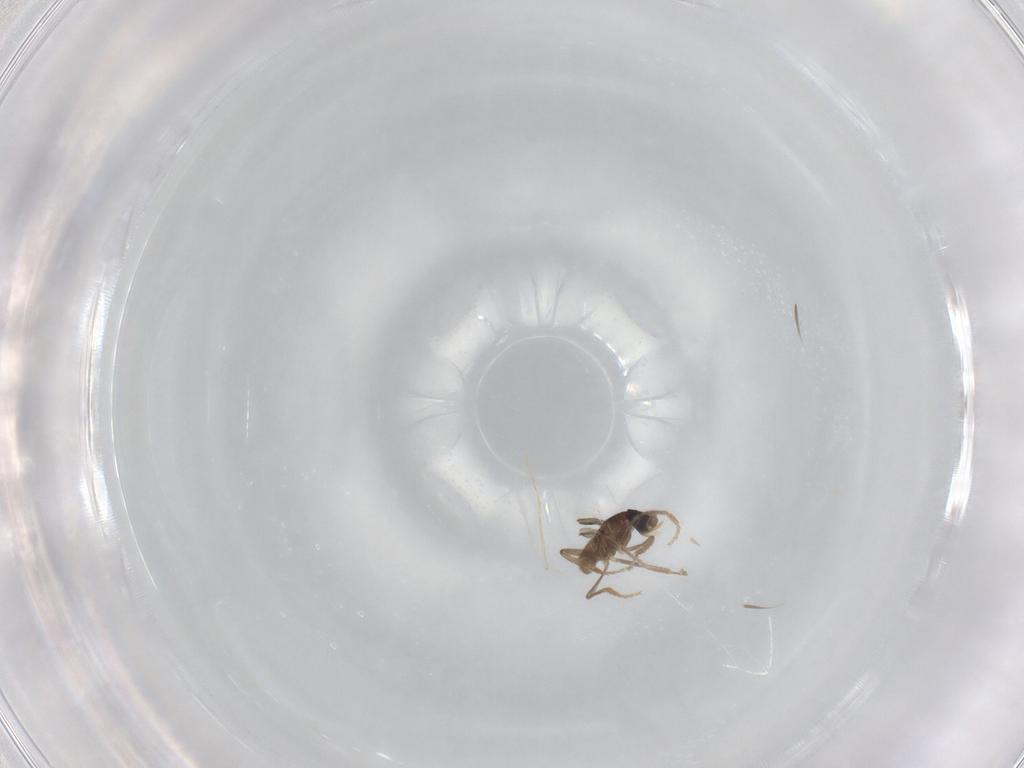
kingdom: Animalia
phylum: Arthropoda
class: Insecta
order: Diptera
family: Phoridae
